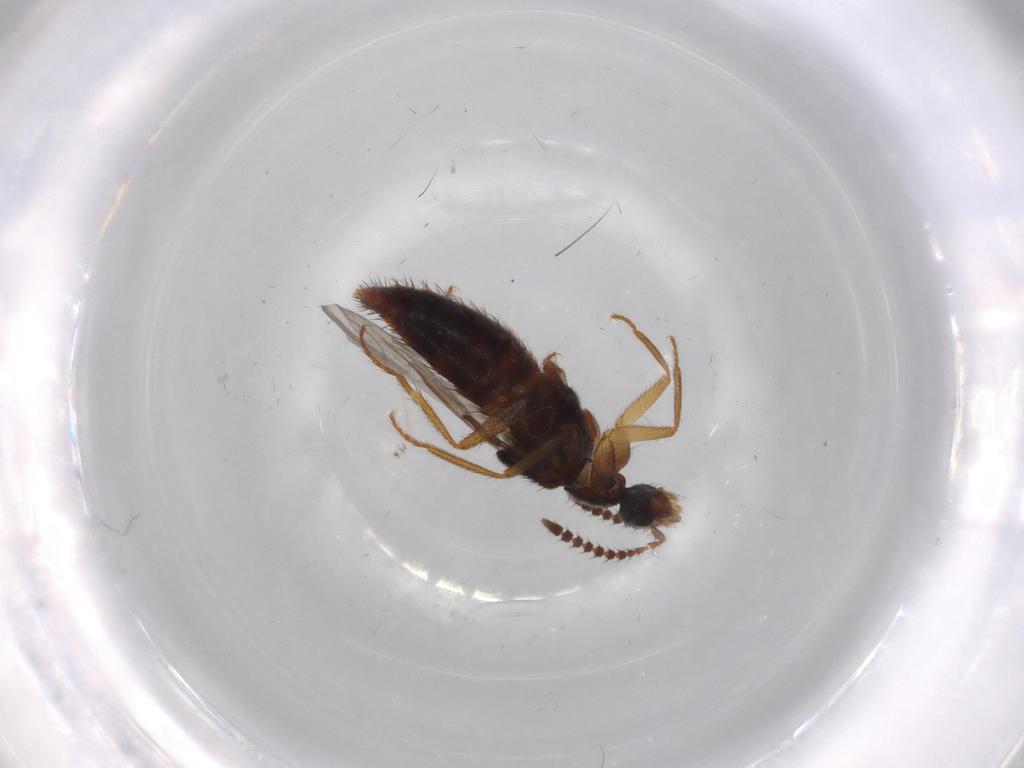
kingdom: Animalia
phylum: Arthropoda
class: Insecta
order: Coleoptera
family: Staphylinidae
